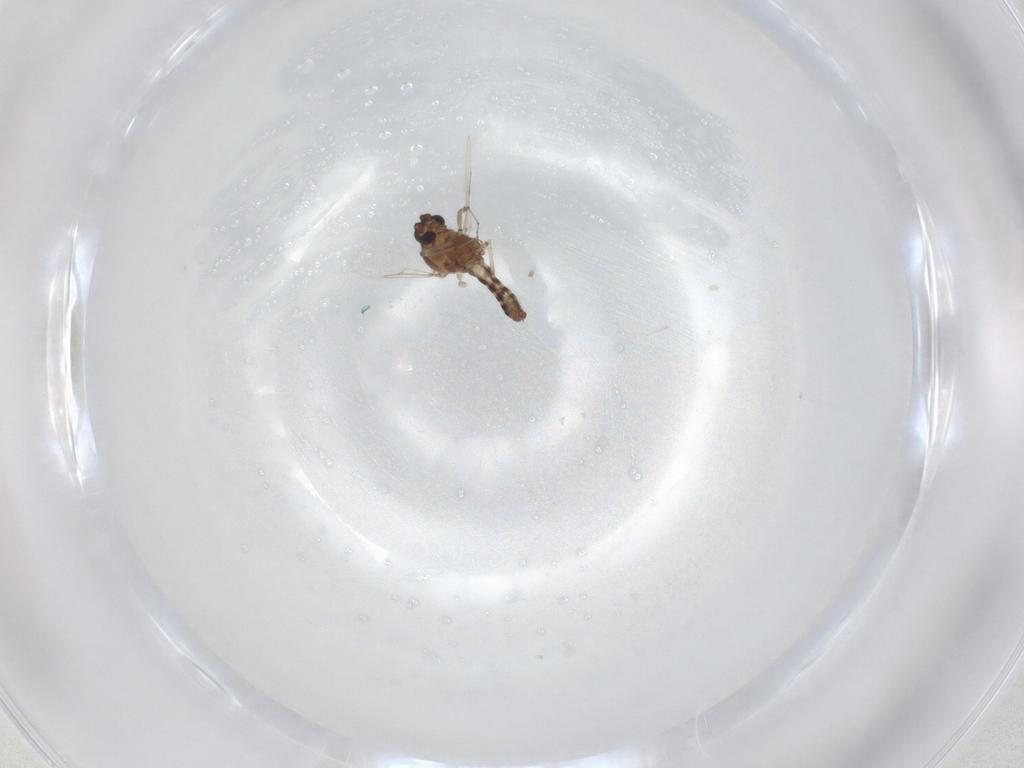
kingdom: Animalia
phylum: Arthropoda
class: Insecta
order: Diptera
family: Ceratopogonidae
